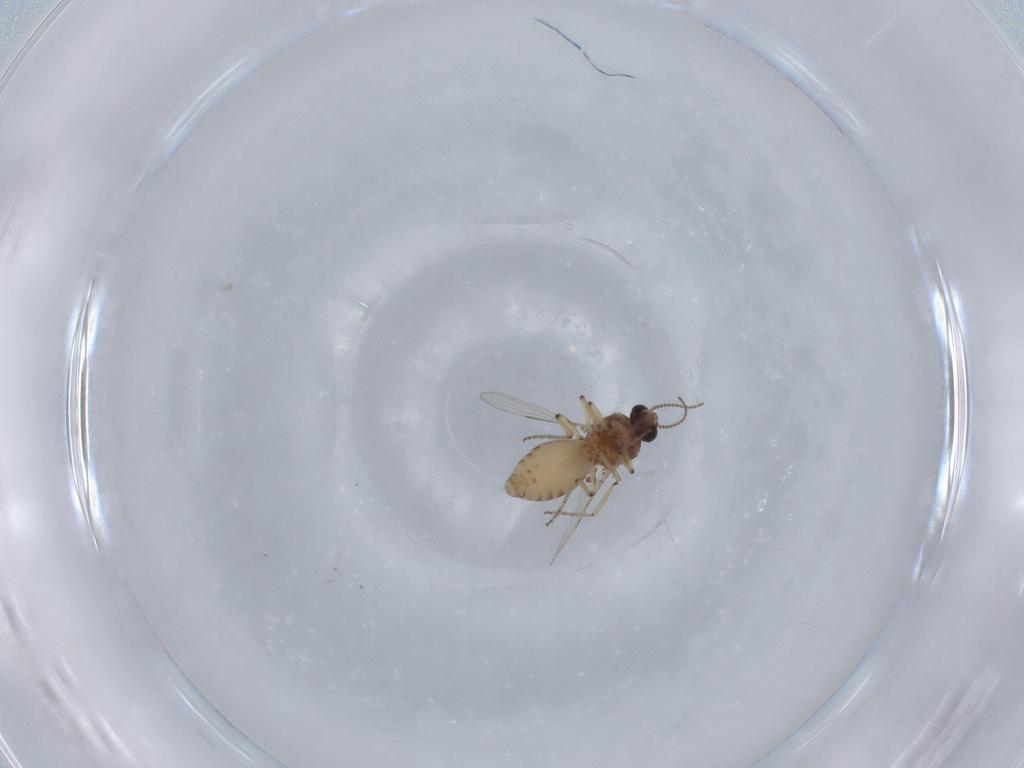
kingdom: Animalia
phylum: Arthropoda
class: Insecta
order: Diptera
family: Ceratopogonidae
